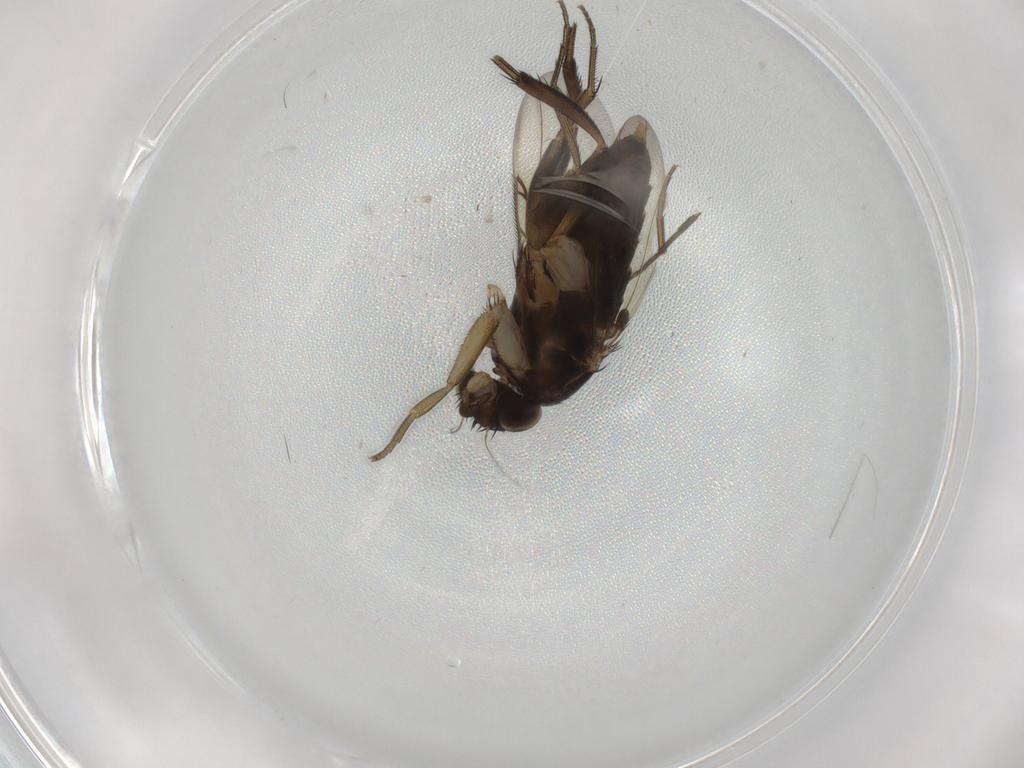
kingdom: Animalia
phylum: Arthropoda
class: Insecta
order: Diptera
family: Phoridae
